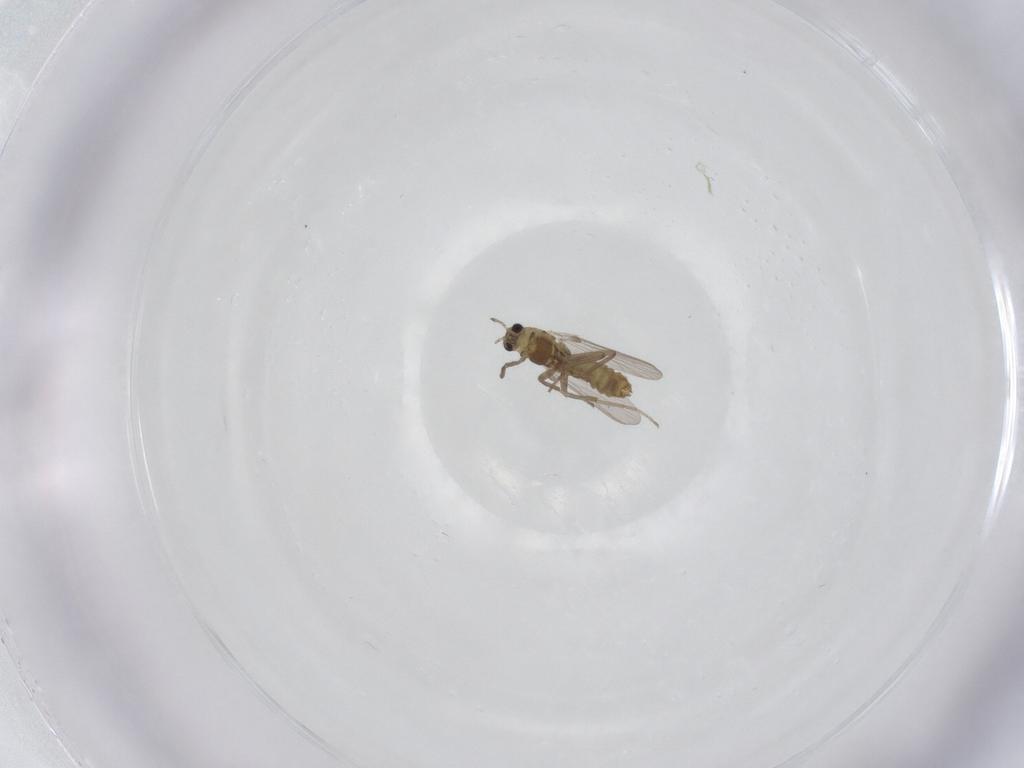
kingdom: Animalia
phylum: Arthropoda
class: Insecta
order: Diptera
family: Chironomidae
